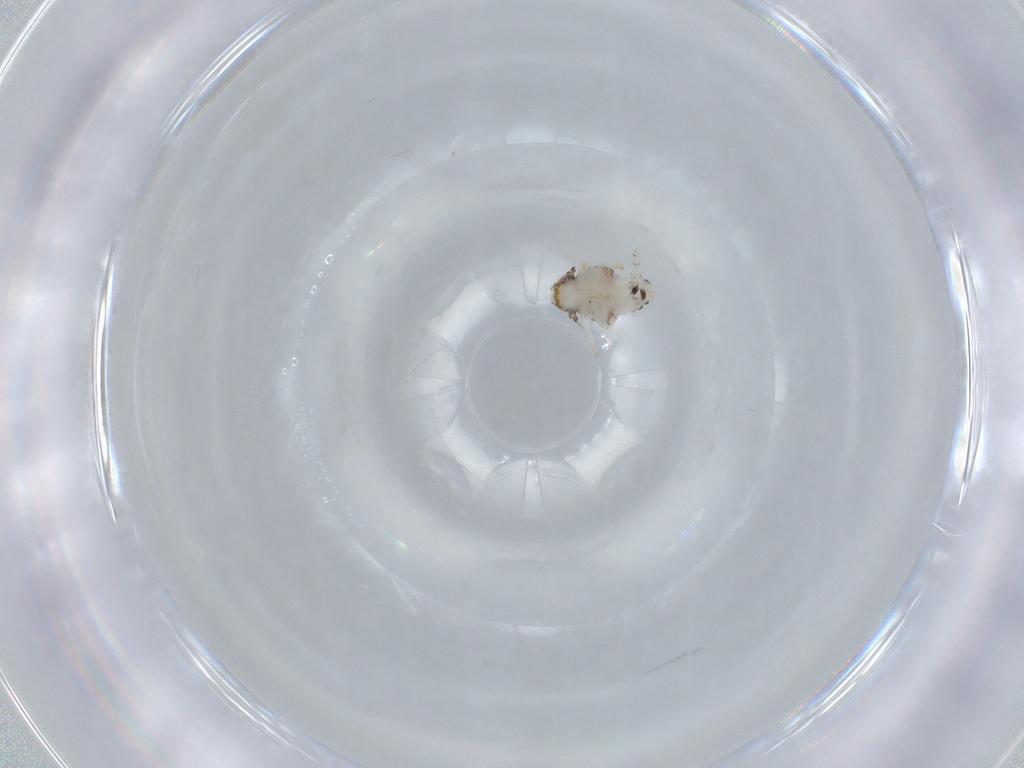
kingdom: Animalia
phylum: Arthropoda
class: Insecta
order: Hemiptera
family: Nogodinidae
